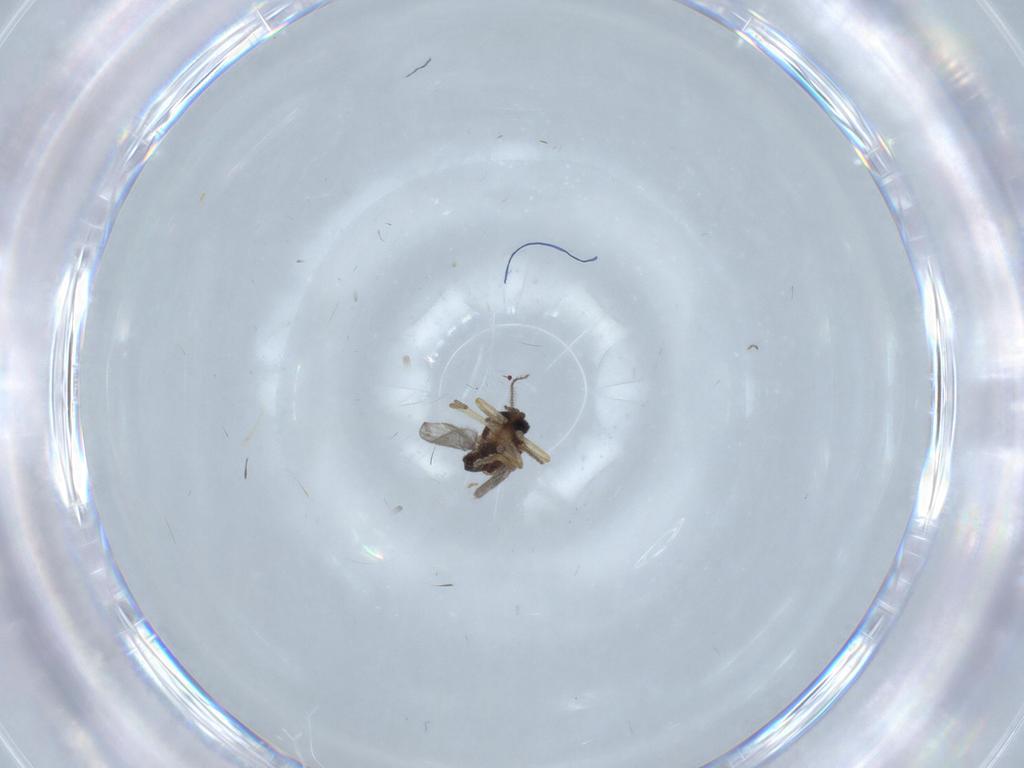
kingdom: Animalia
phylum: Arthropoda
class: Insecta
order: Diptera
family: Ceratopogonidae
